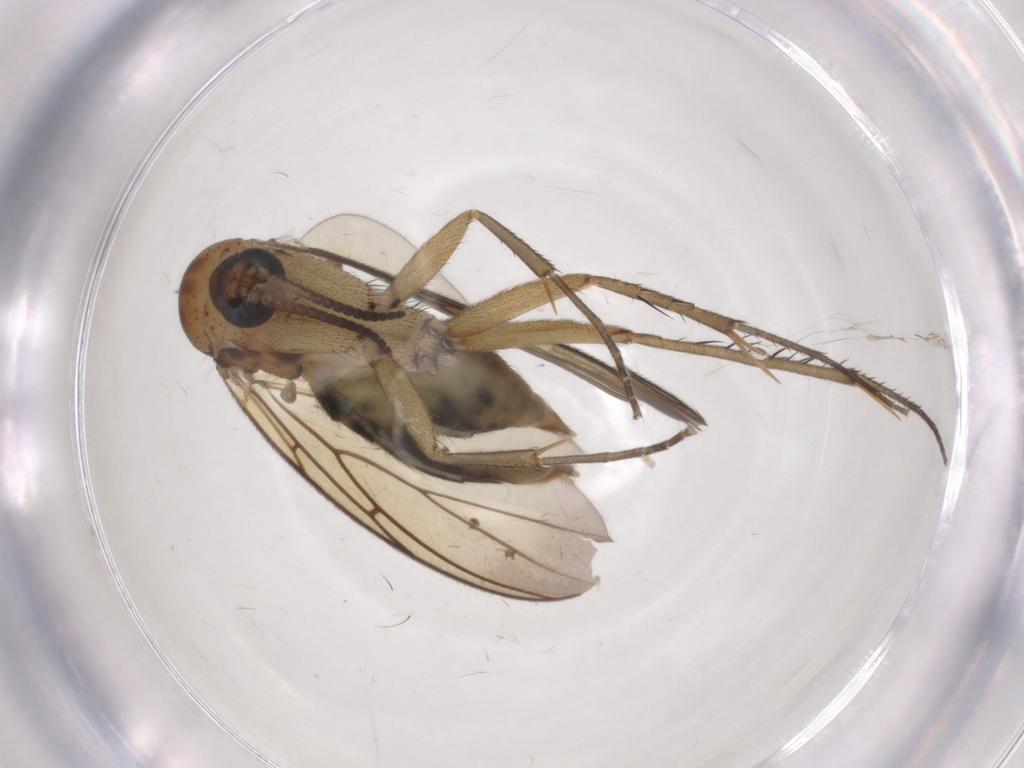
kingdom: Animalia
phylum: Arthropoda
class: Insecta
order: Diptera
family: Mycetophilidae
